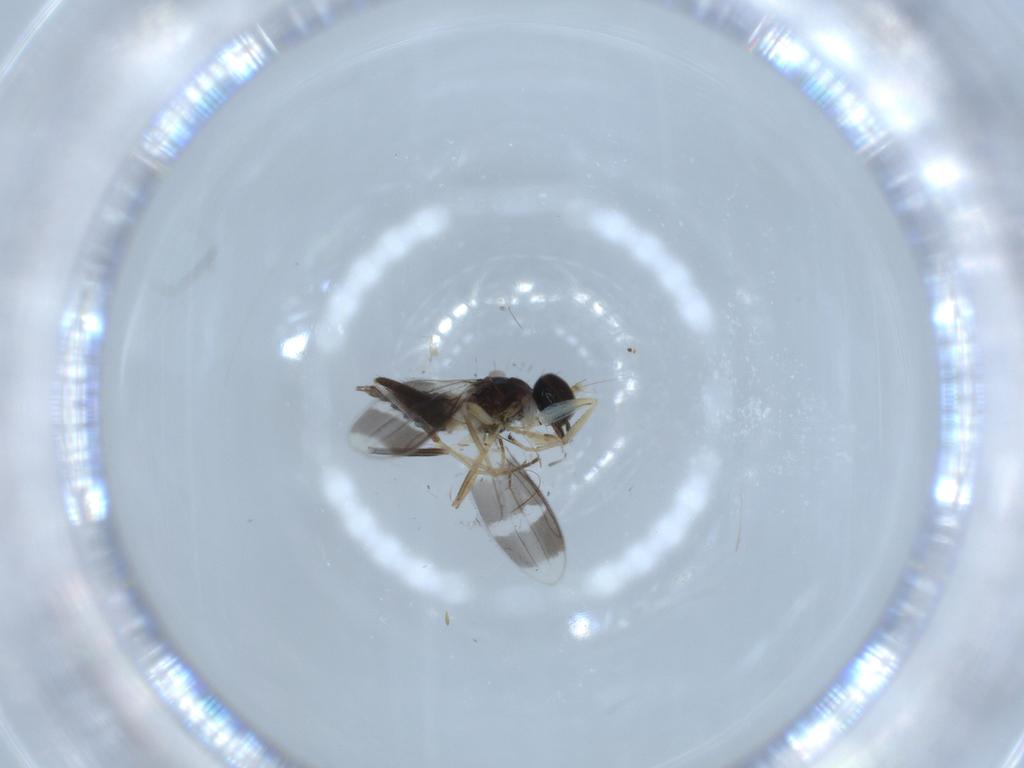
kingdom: Animalia
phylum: Arthropoda
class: Insecta
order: Diptera
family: Hybotidae
